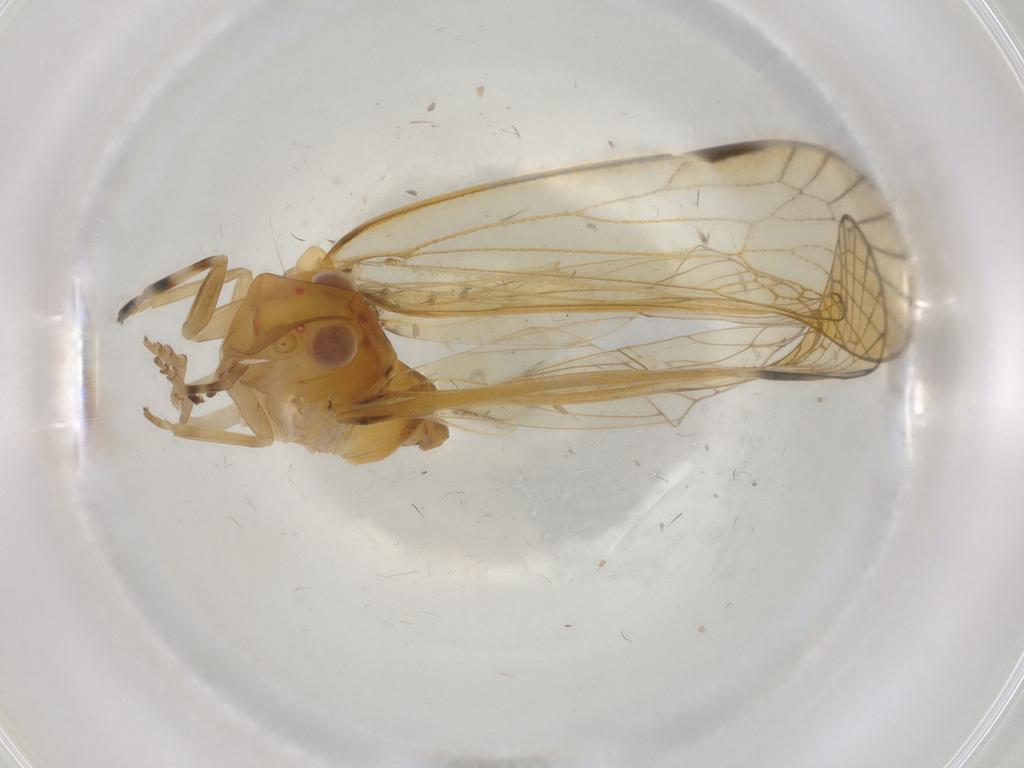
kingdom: Animalia
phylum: Arthropoda
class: Insecta
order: Hemiptera
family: Cixiidae
